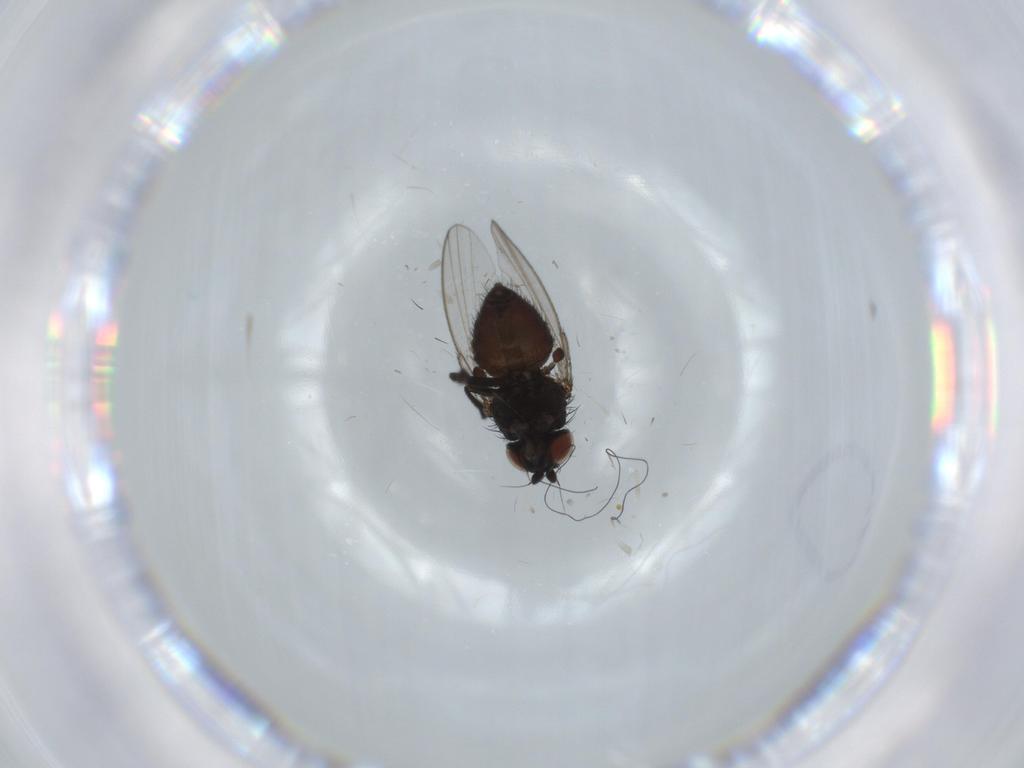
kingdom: Animalia
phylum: Arthropoda
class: Insecta
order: Diptera
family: Milichiidae
